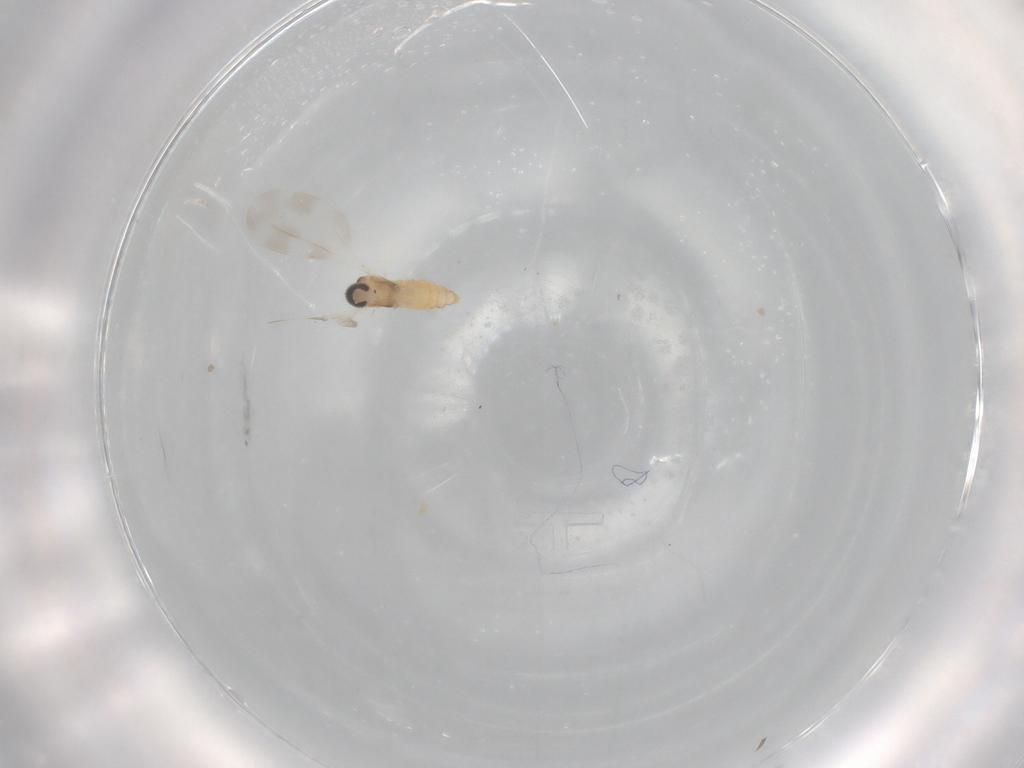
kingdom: Animalia
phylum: Arthropoda
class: Insecta
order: Diptera
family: Cecidomyiidae
